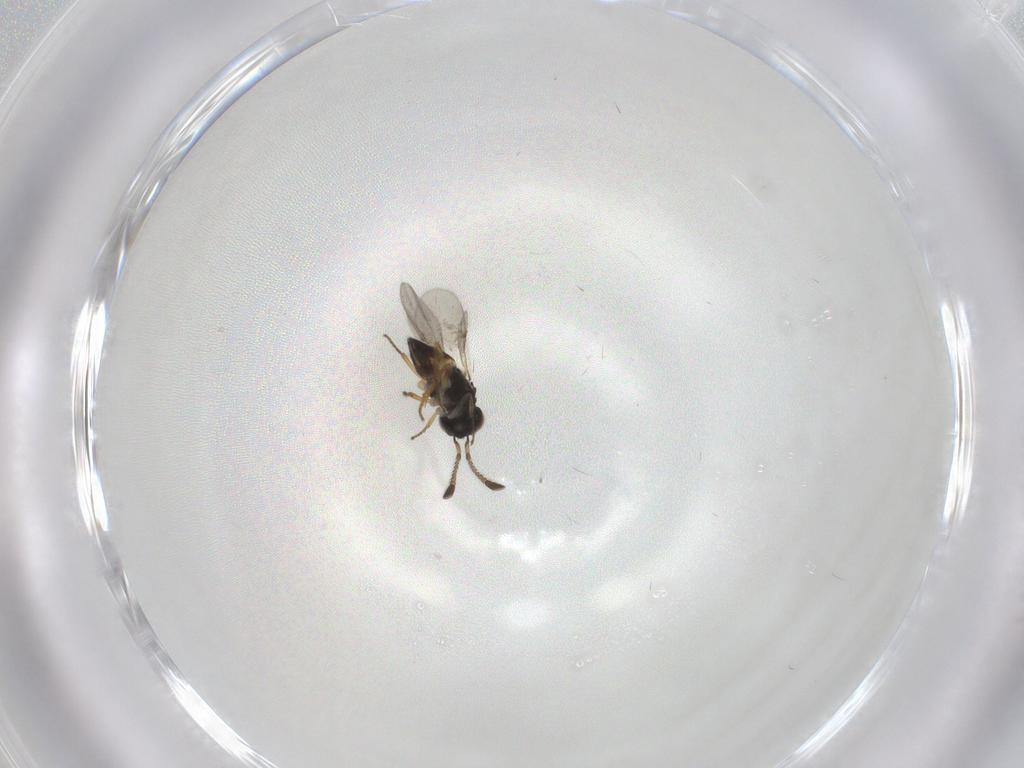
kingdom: Animalia
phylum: Arthropoda
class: Insecta
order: Hymenoptera
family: Encyrtidae
